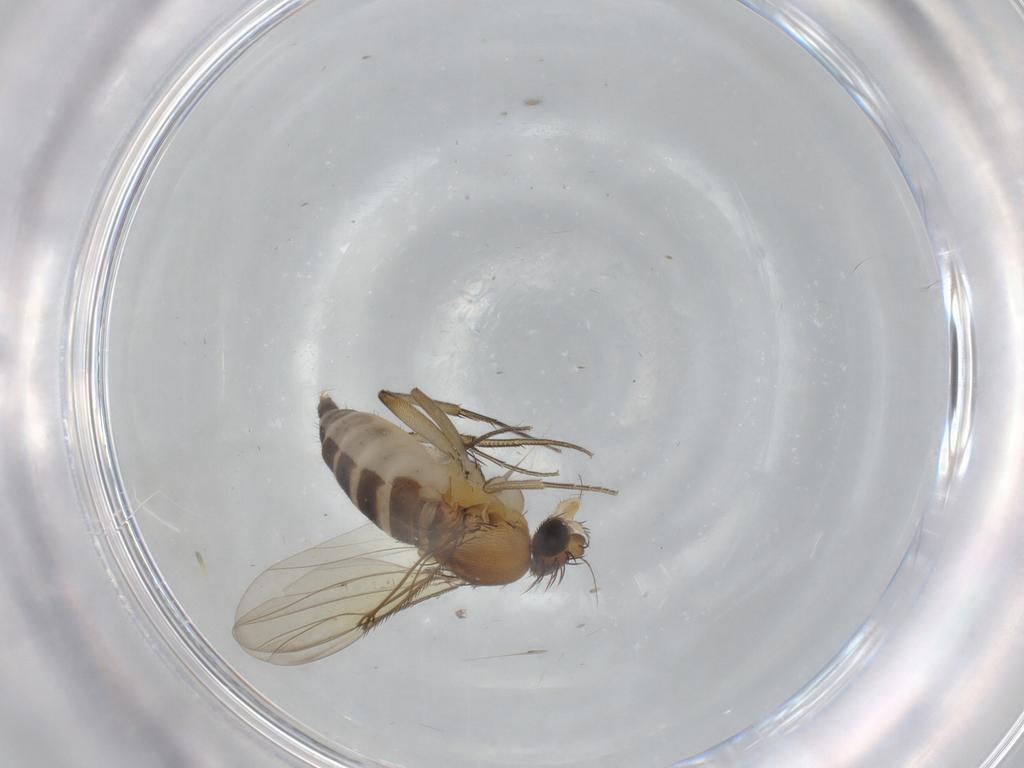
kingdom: Animalia
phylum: Arthropoda
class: Insecta
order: Diptera
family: Phoridae
